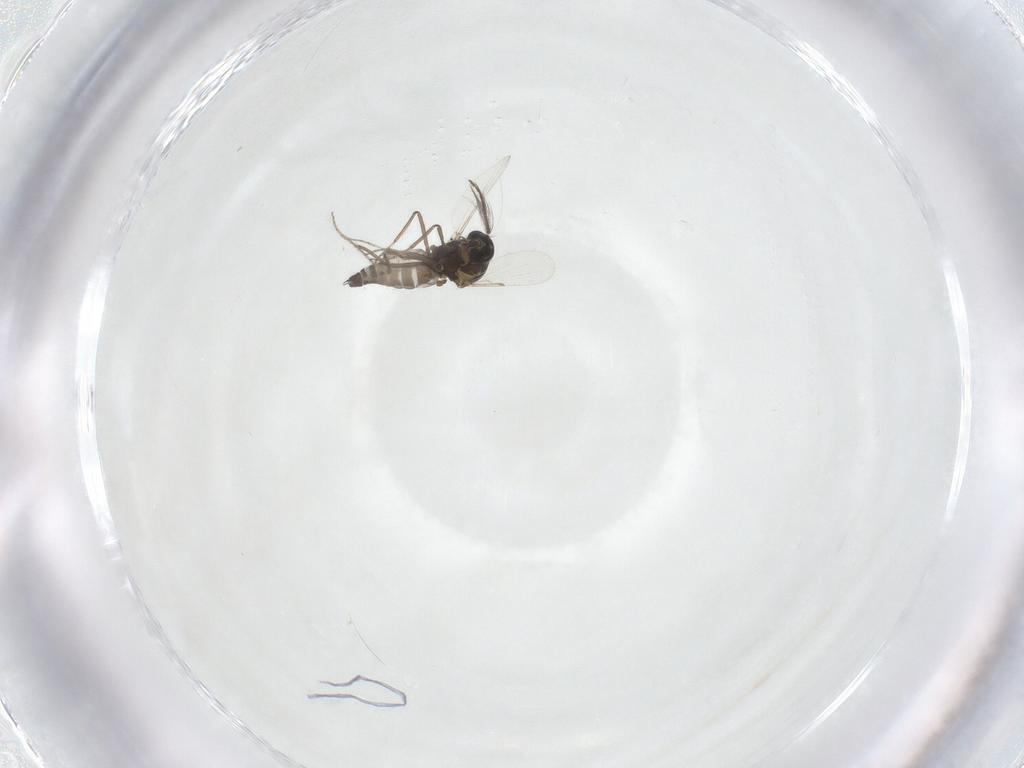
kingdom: Animalia
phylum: Arthropoda
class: Insecta
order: Diptera
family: Ceratopogonidae
